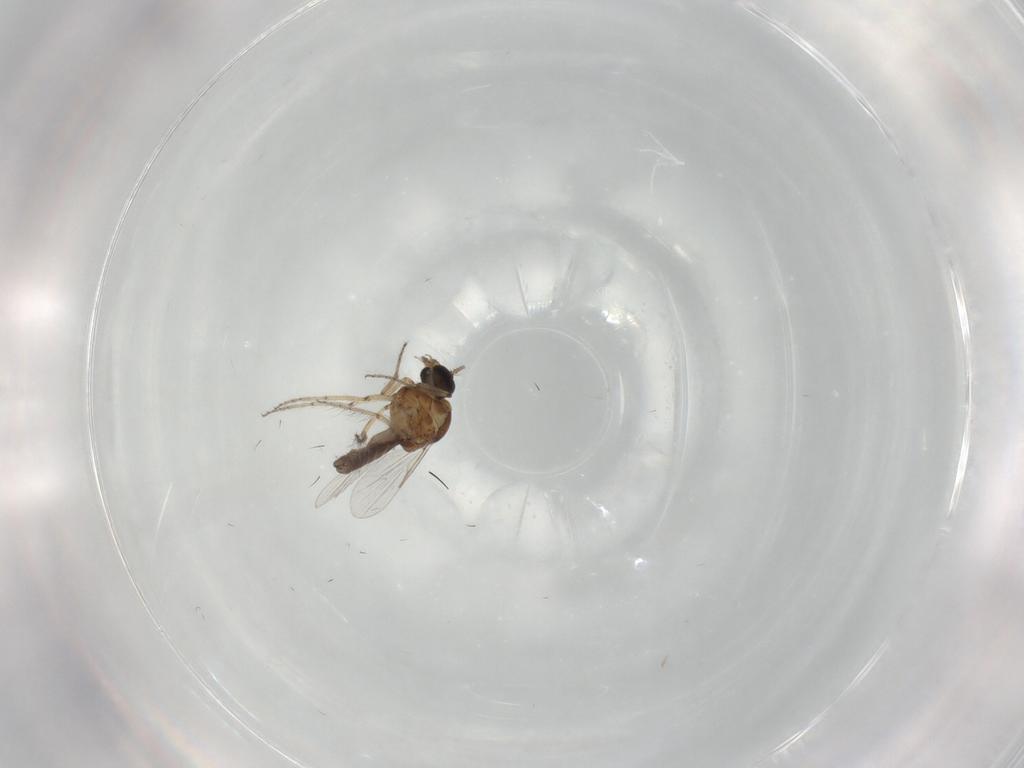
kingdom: Animalia
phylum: Arthropoda
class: Insecta
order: Diptera
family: Ceratopogonidae
